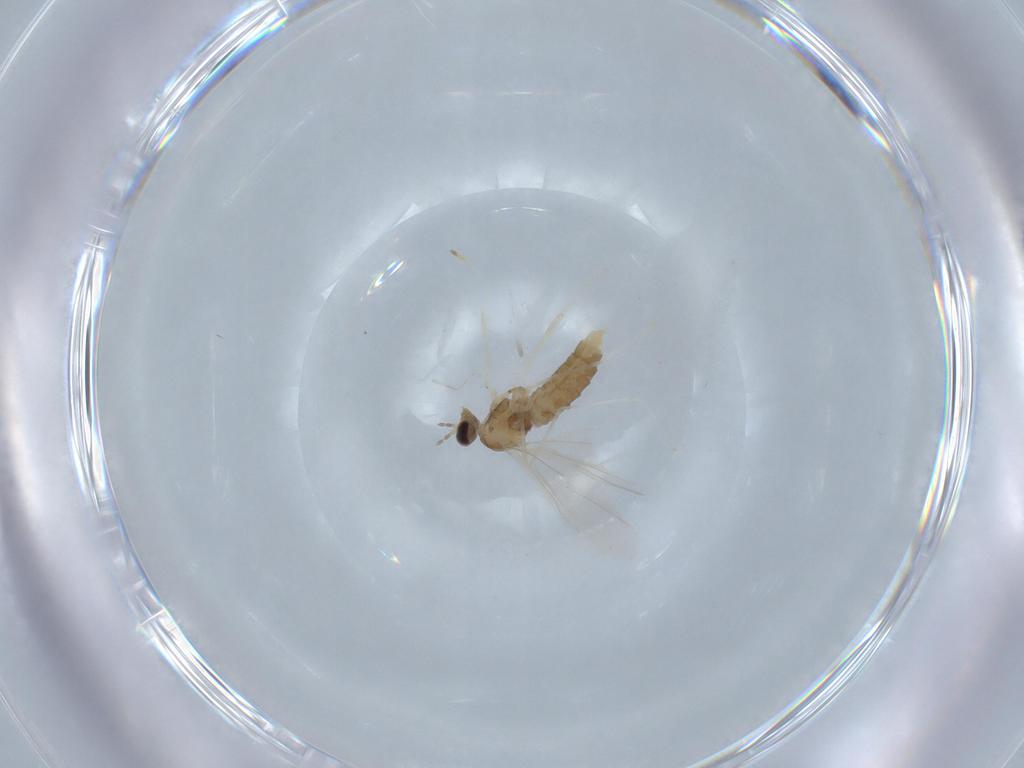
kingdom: Animalia
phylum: Arthropoda
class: Insecta
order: Diptera
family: Cecidomyiidae
